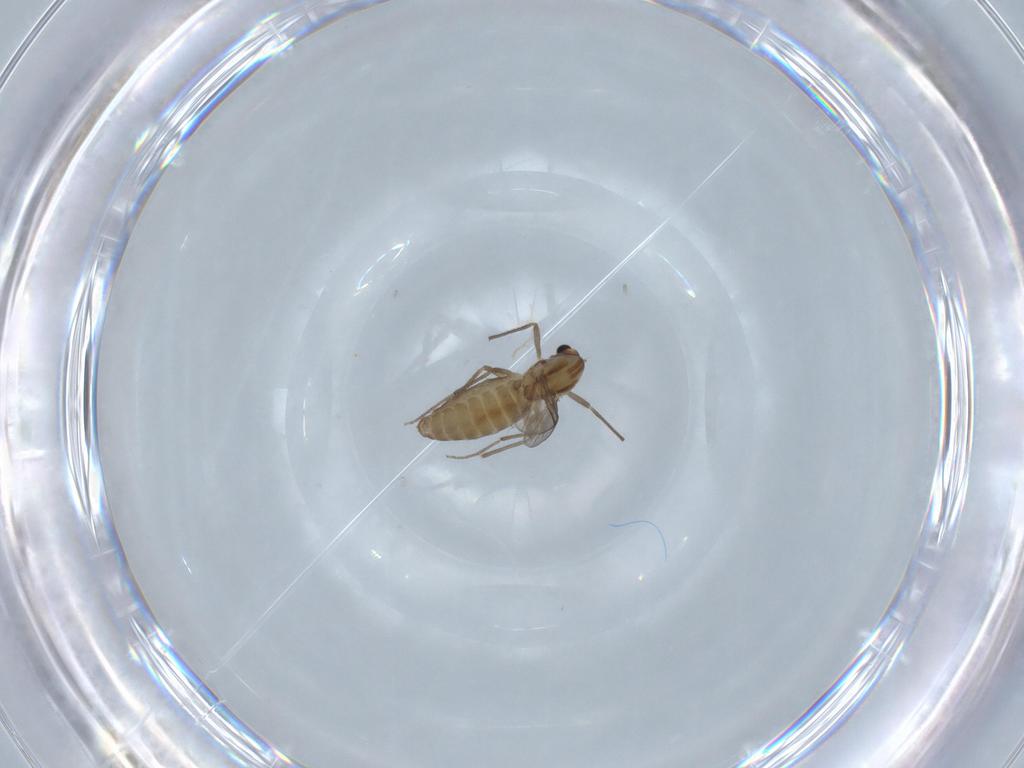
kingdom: Animalia
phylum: Arthropoda
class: Insecta
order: Diptera
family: Chironomidae
